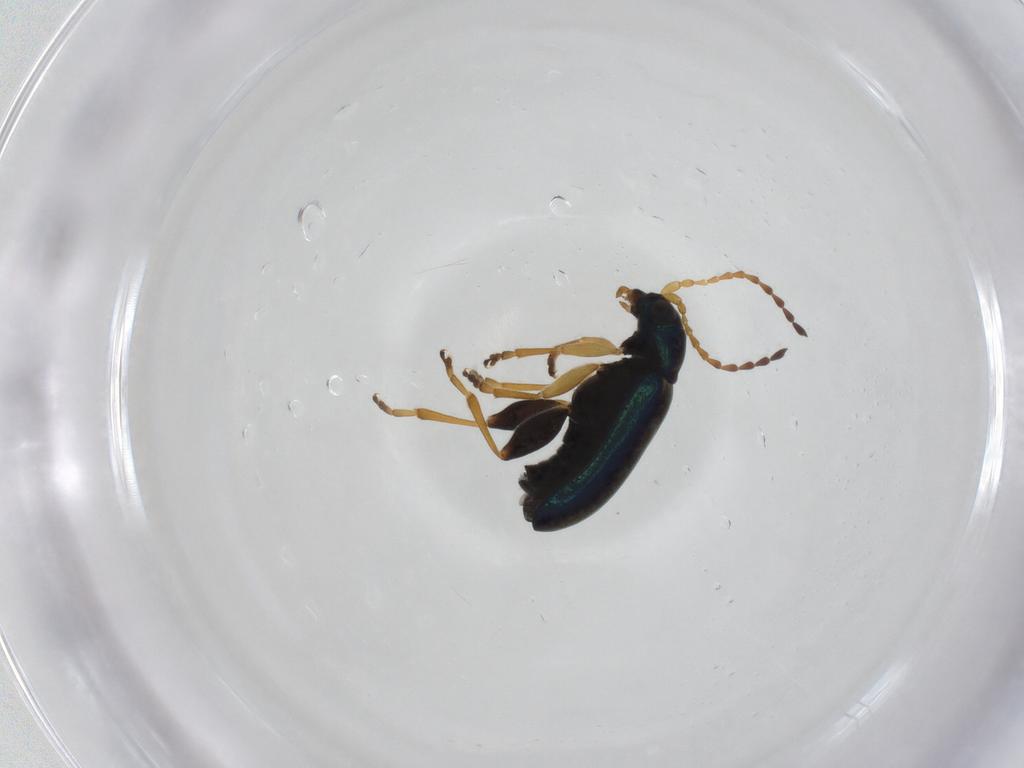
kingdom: Animalia
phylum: Arthropoda
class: Insecta
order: Coleoptera
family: Chrysomelidae
